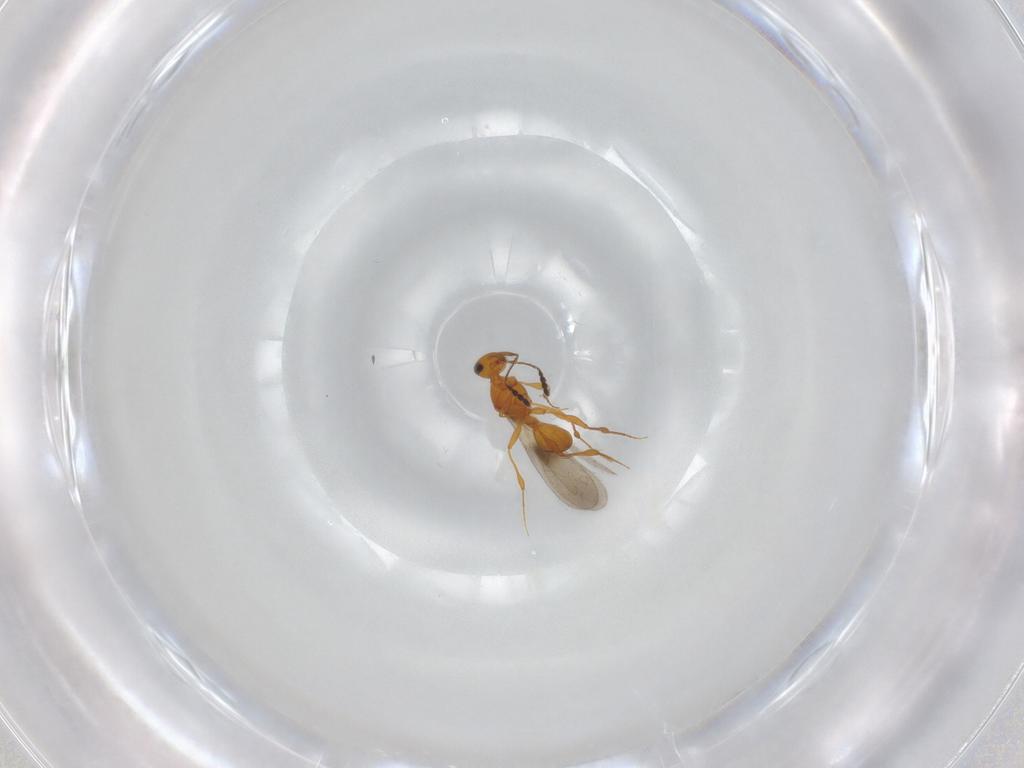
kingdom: Animalia
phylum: Arthropoda
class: Insecta
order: Hymenoptera
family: Platygastridae
